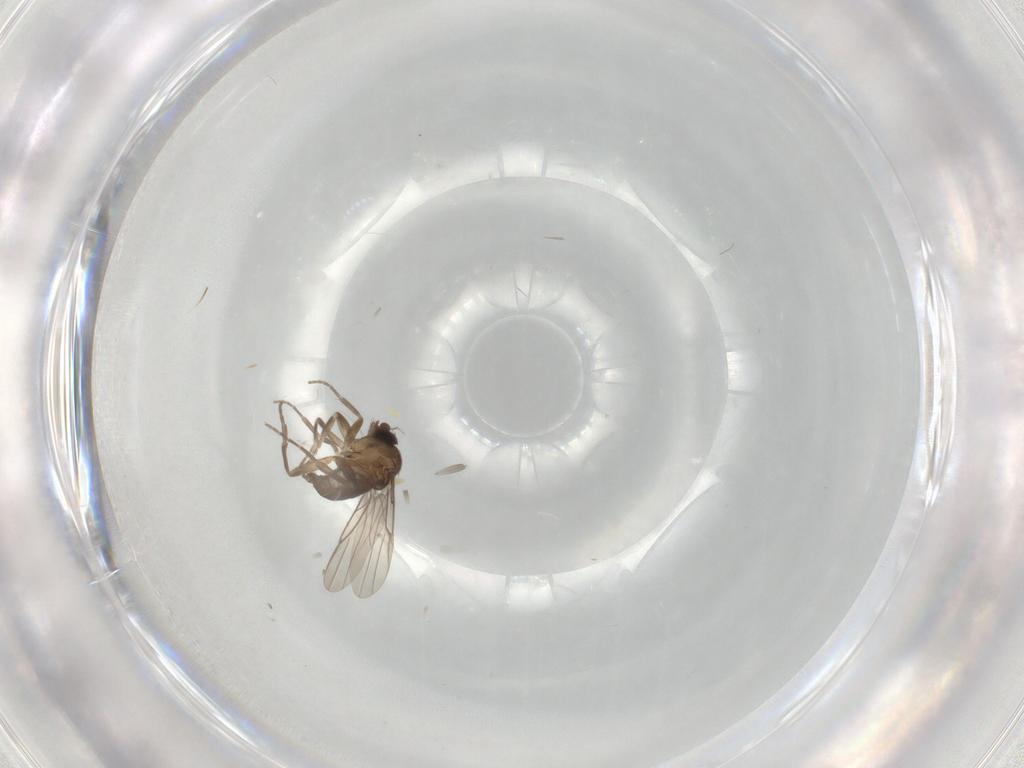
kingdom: Animalia
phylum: Arthropoda
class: Insecta
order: Diptera
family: Phoridae
